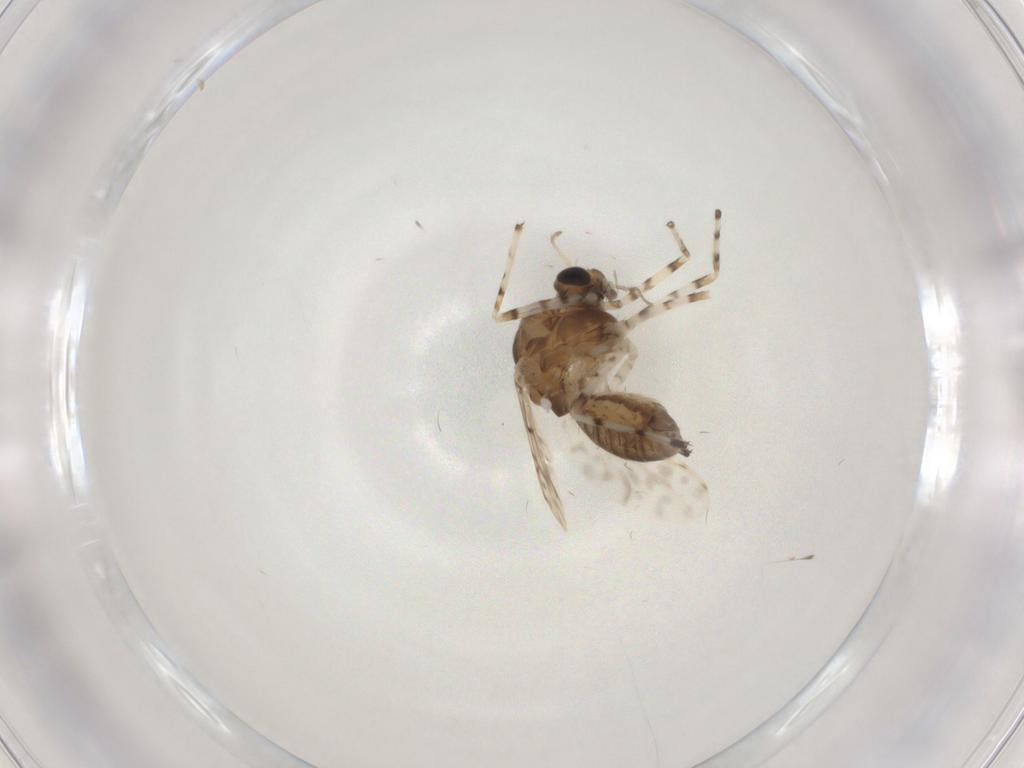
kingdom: Animalia
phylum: Arthropoda
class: Insecta
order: Diptera
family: Chironomidae
